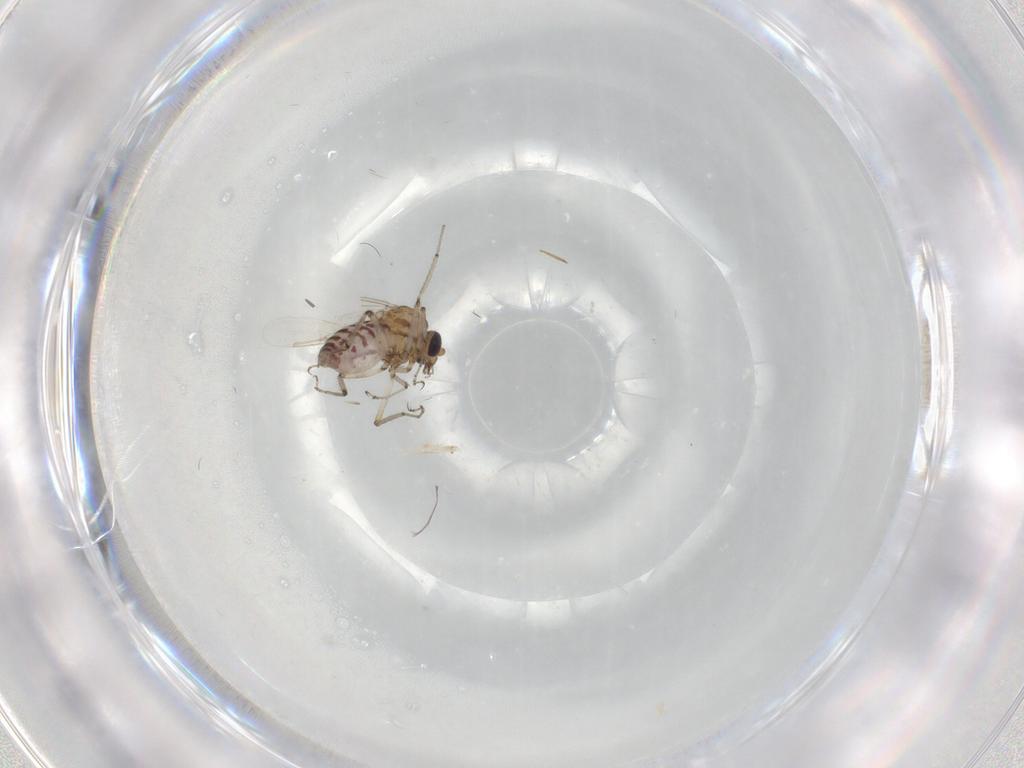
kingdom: Animalia
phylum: Arthropoda
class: Insecta
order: Diptera
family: Ceratopogonidae
